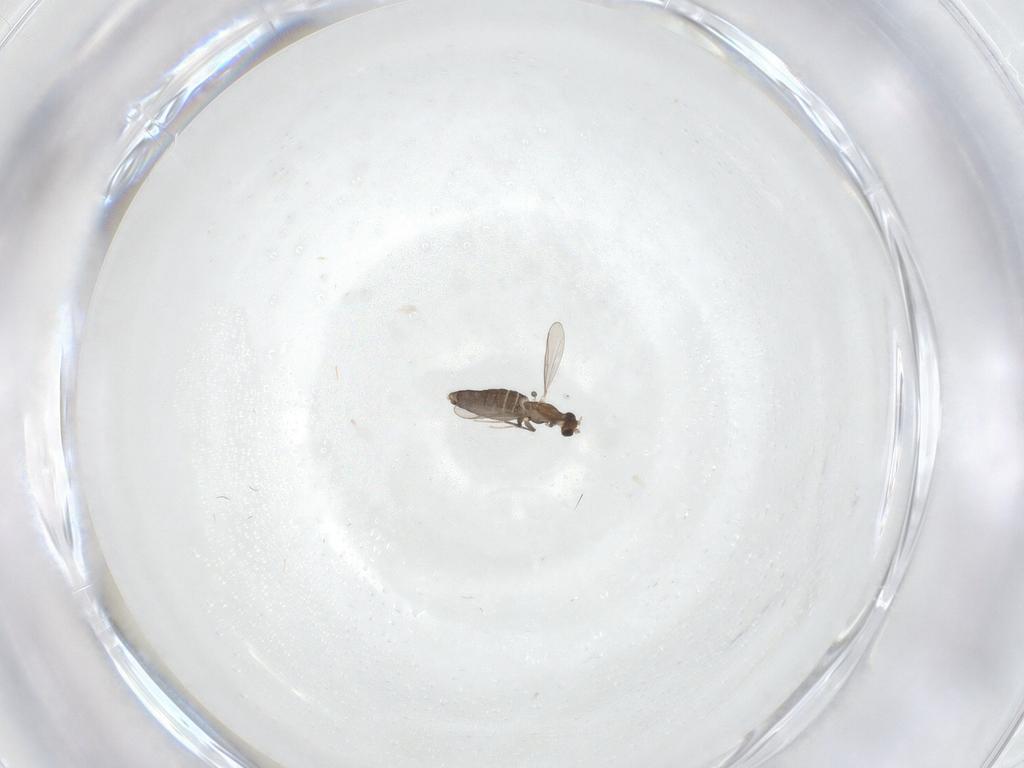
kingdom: Animalia
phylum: Arthropoda
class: Insecta
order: Diptera
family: Chironomidae
